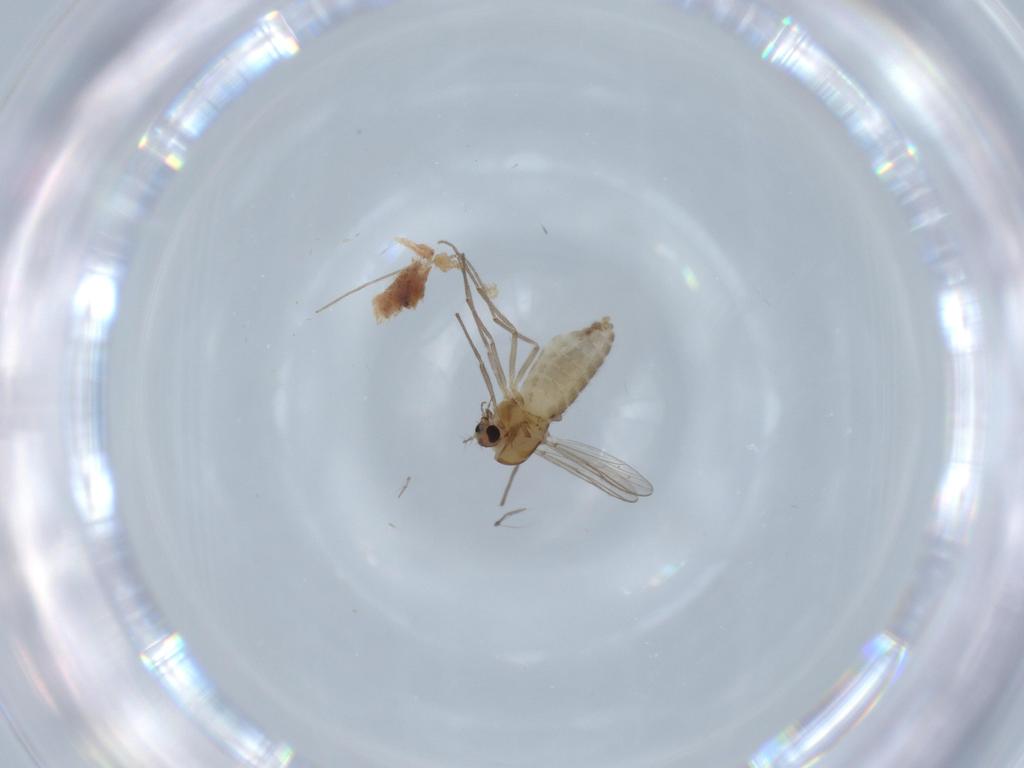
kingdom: Animalia
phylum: Arthropoda
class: Insecta
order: Diptera
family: Chironomidae
